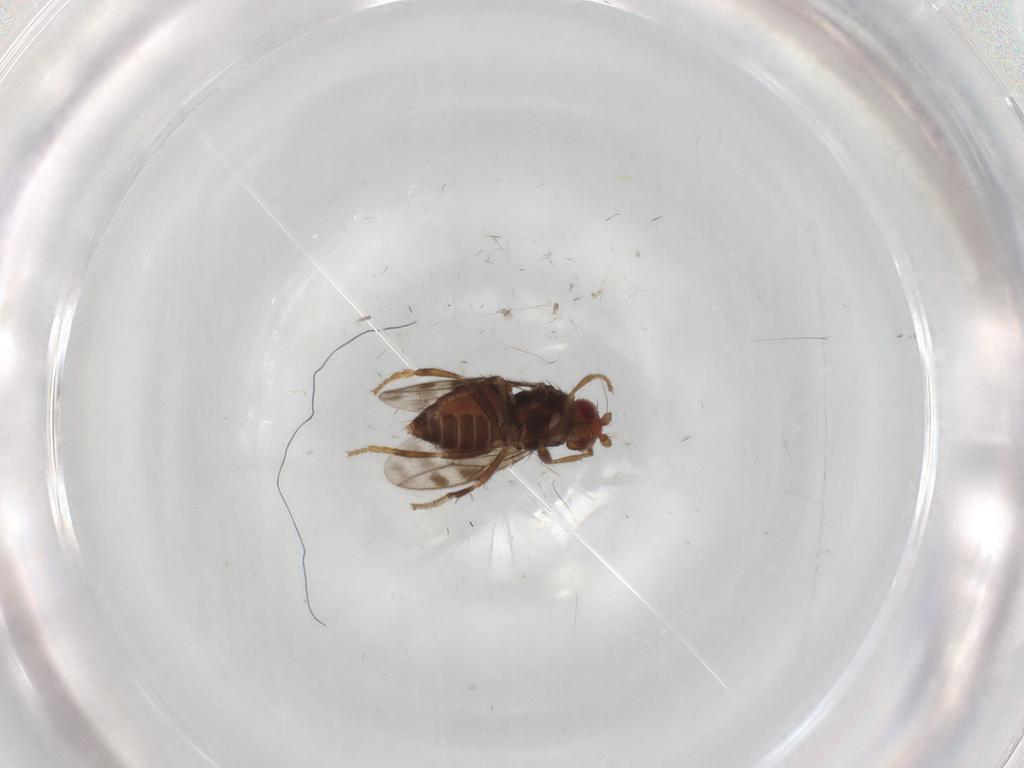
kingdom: Animalia
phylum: Arthropoda
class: Insecta
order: Diptera
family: Sphaeroceridae
